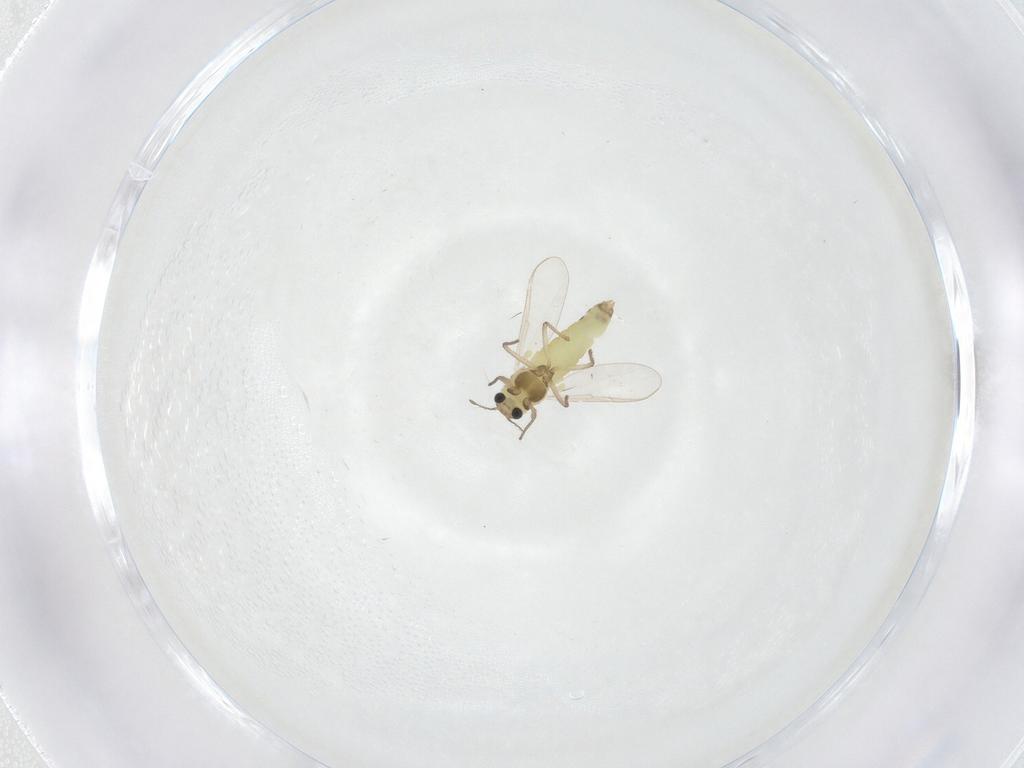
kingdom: Animalia
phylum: Arthropoda
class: Insecta
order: Diptera
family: Chironomidae
